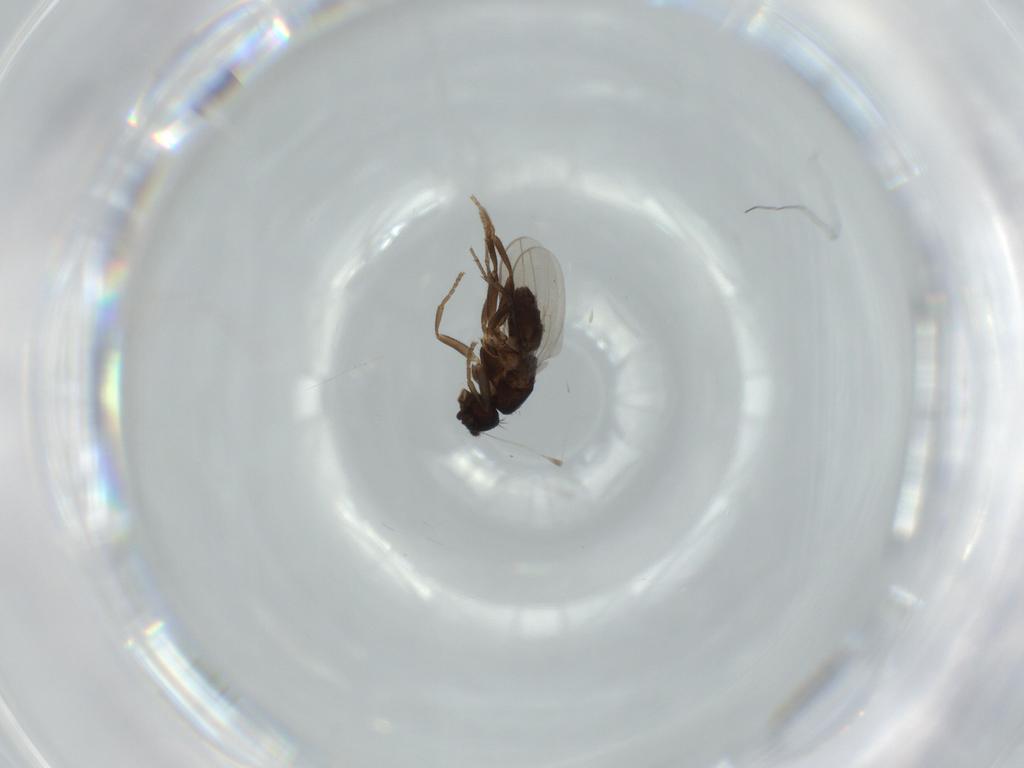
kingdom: Animalia
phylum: Arthropoda
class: Insecta
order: Diptera
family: Sphaeroceridae
